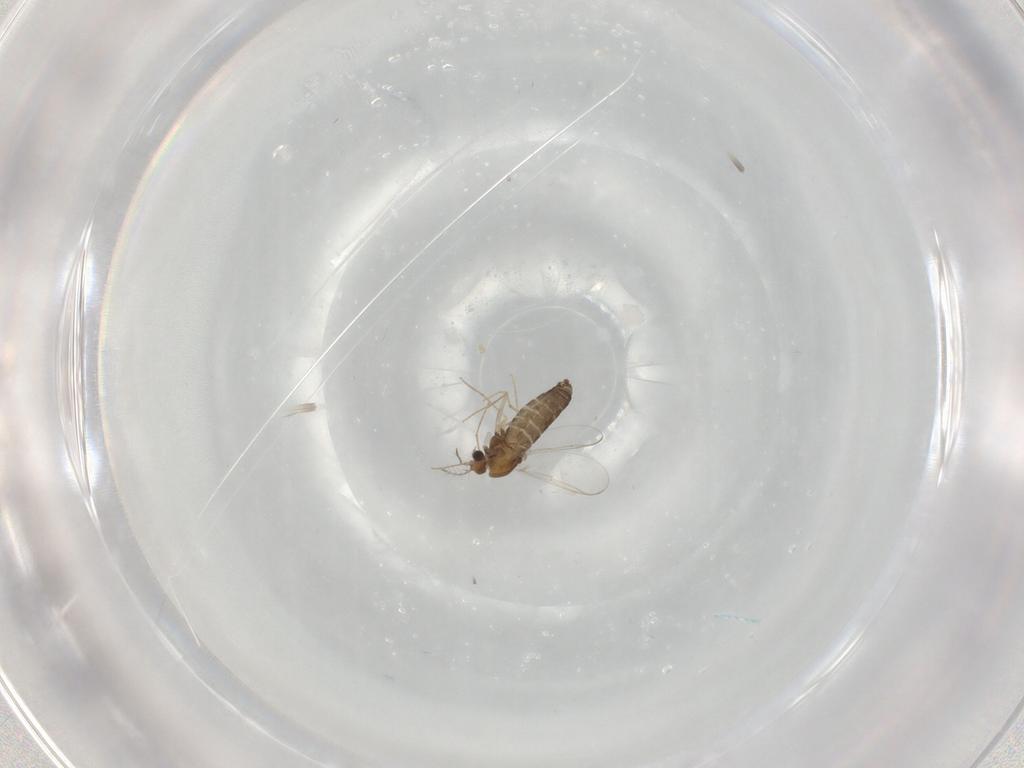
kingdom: Animalia
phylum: Arthropoda
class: Insecta
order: Diptera
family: Chironomidae
